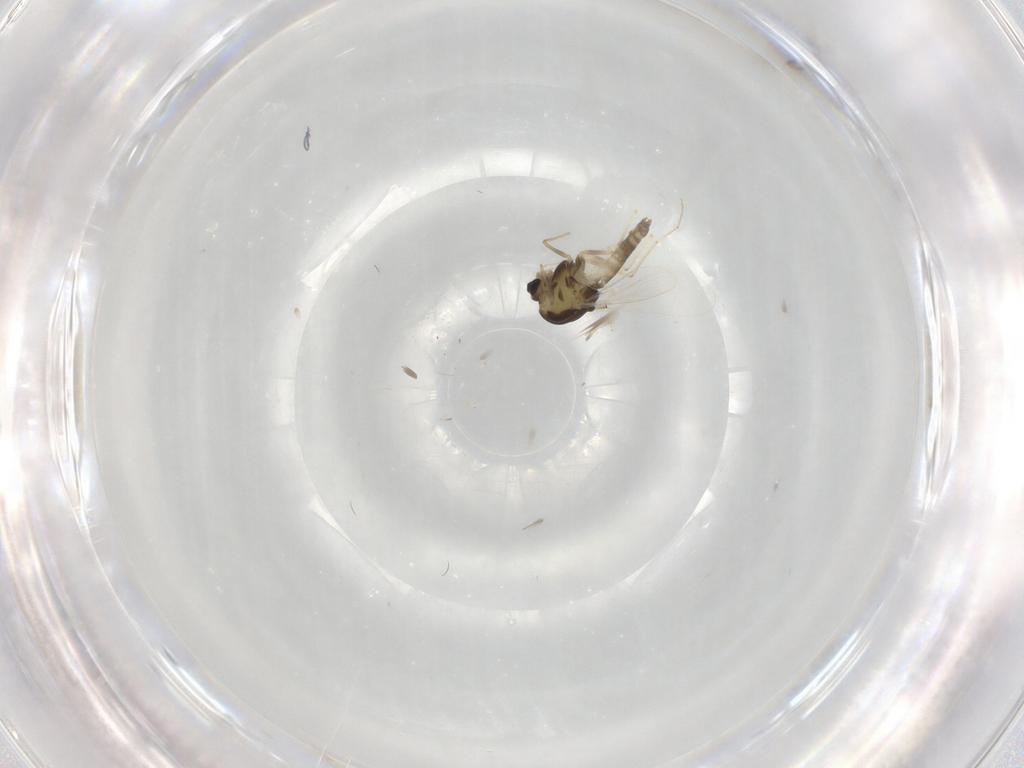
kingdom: Animalia
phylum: Arthropoda
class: Insecta
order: Diptera
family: Chironomidae
